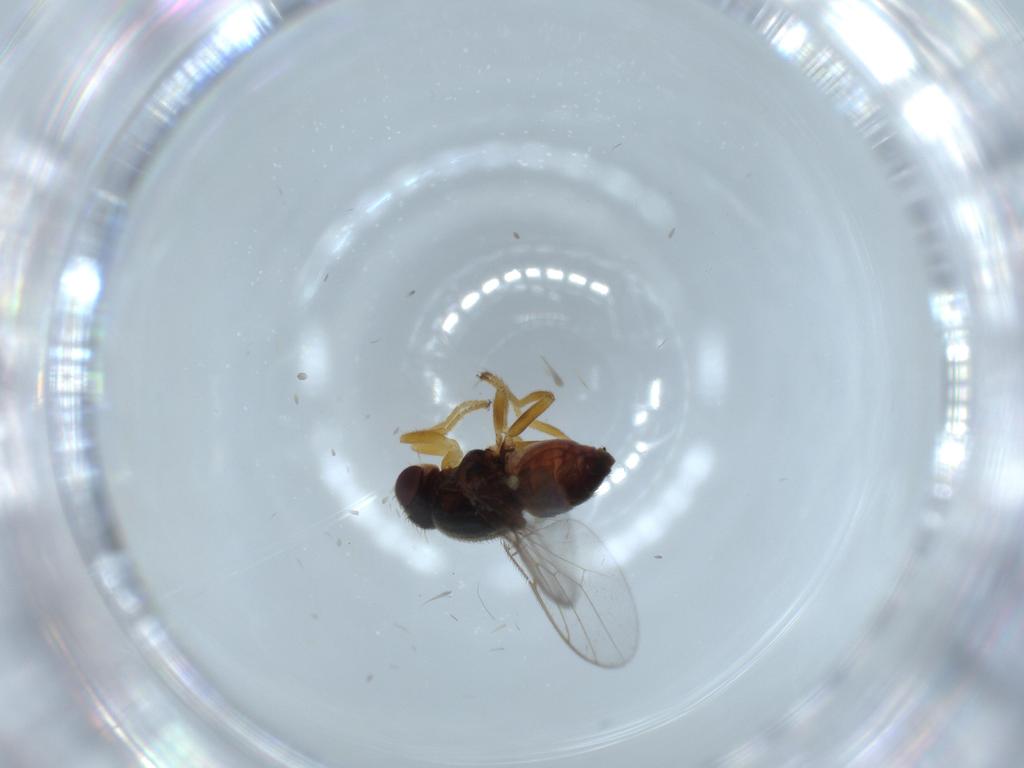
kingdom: Animalia
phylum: Arthropoda
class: Insecta
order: Diptera
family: Chloropidae
